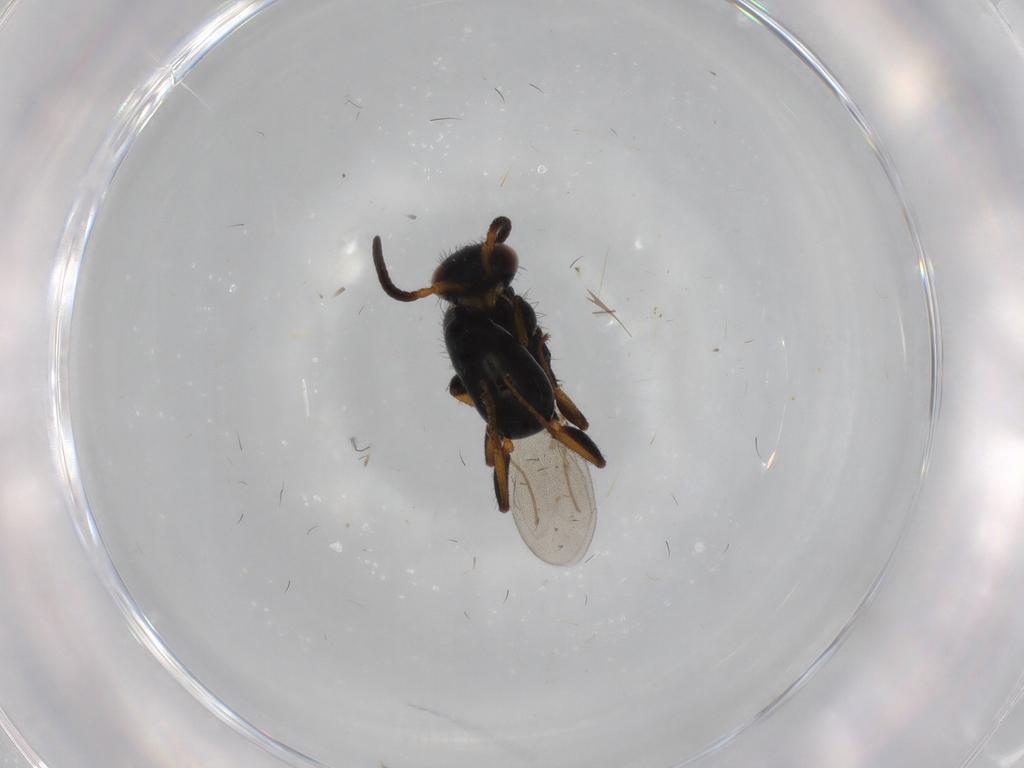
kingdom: Animalia
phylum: Arthropoda
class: Insecta
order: Hymenoptera
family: Bethylidae
